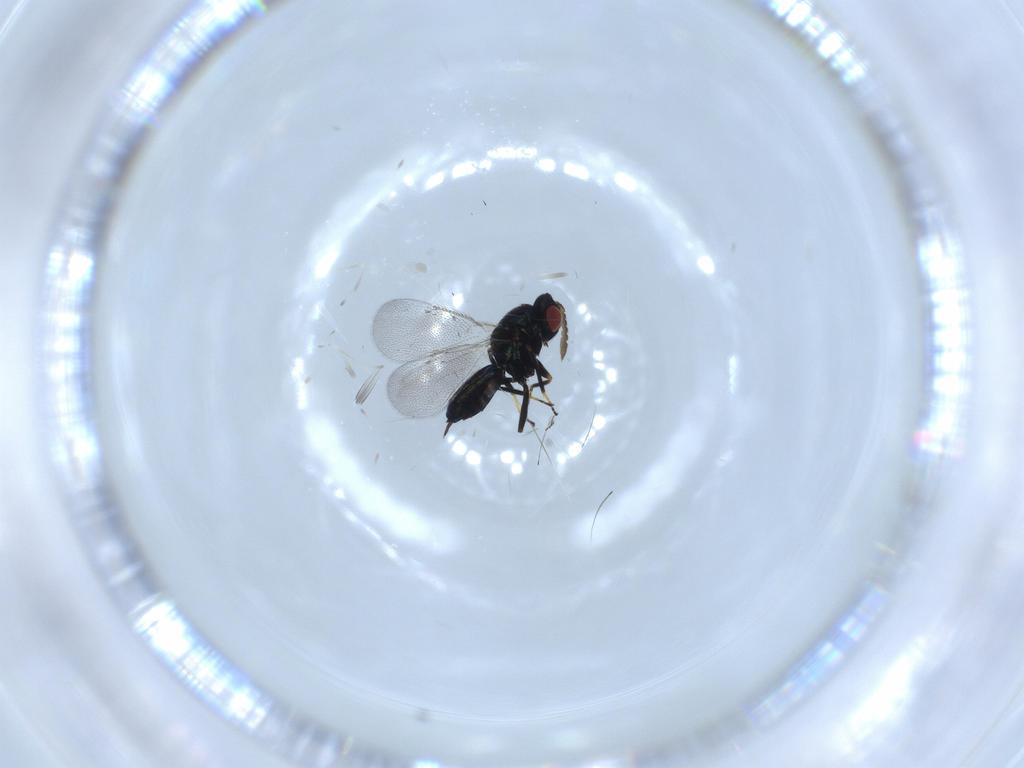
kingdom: Animalia
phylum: Arthropoda
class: Insecta
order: Hymenoptera
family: Eulophidae
